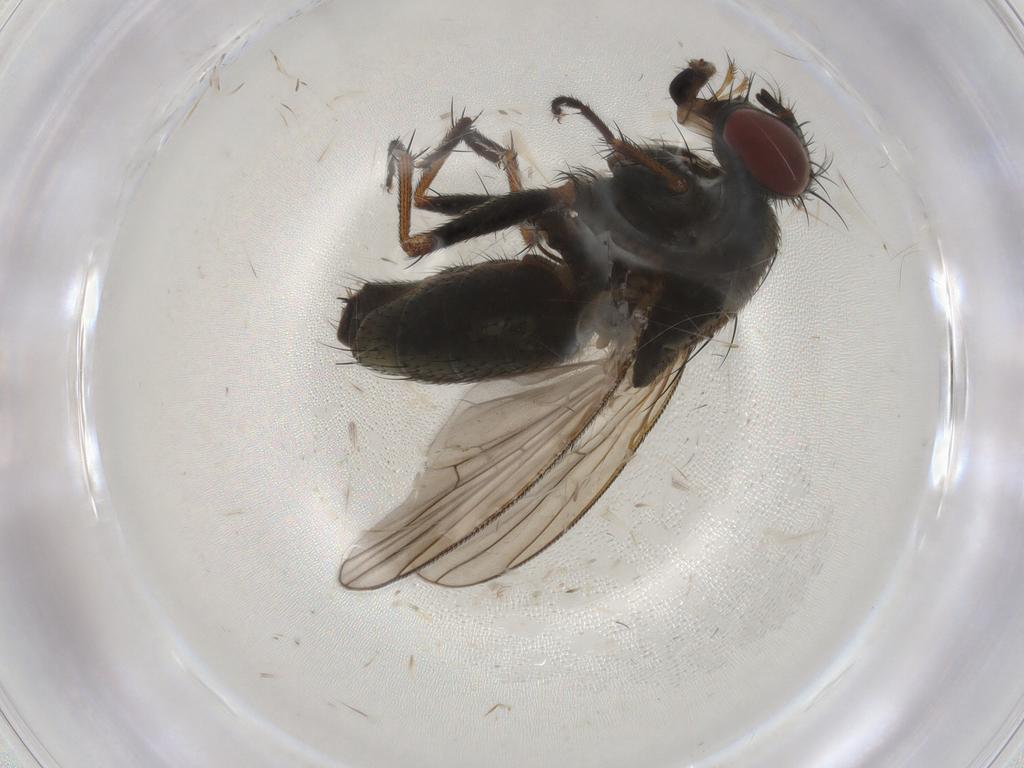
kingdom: Animalia
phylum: Arthropoda
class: Insecta
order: Diptera
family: Muscidae
